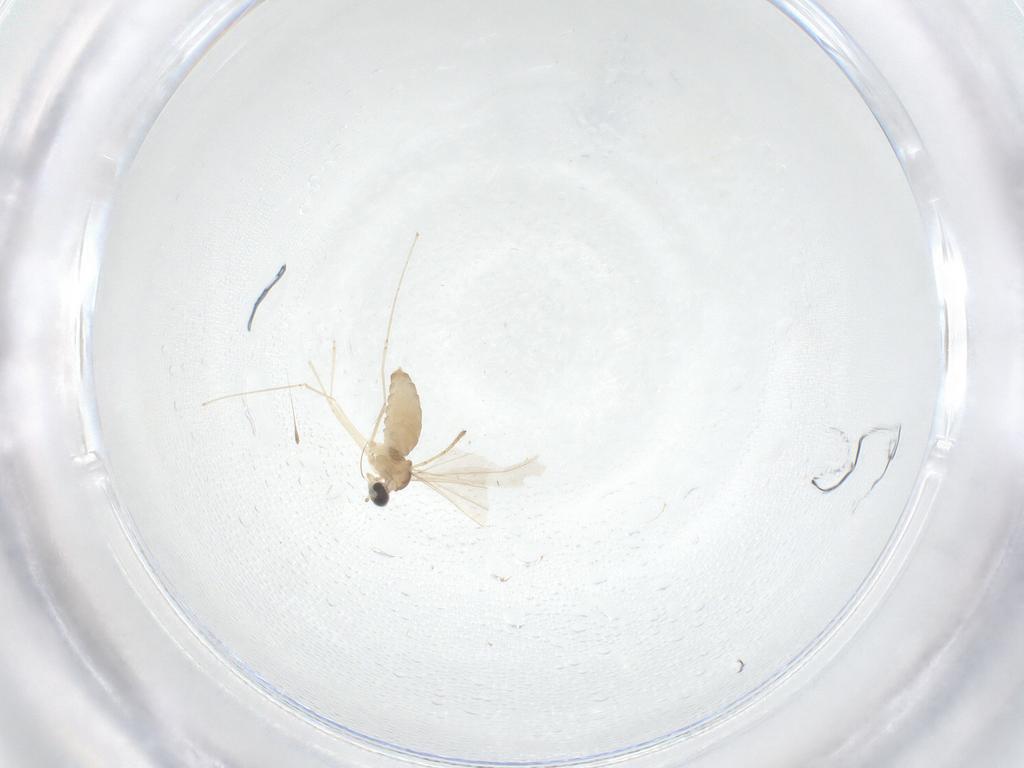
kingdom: Animalia
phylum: Arthropoda
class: Insecta
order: Diptera
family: Cecidomyiidae
